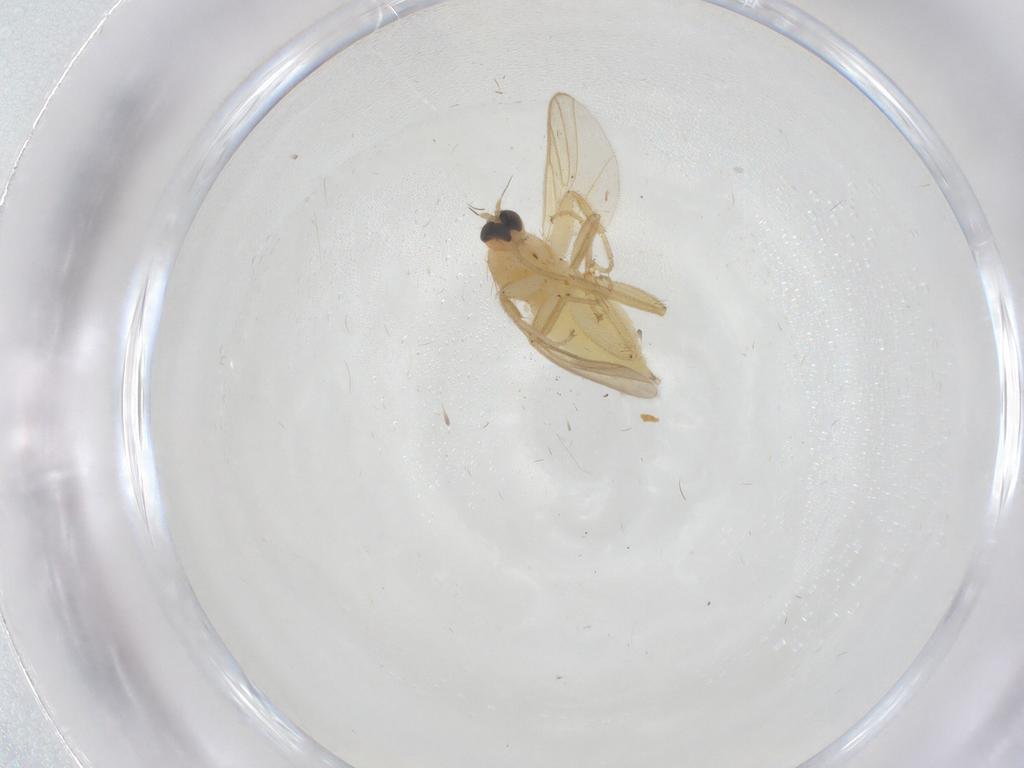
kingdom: Animalia
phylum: Arthropoda
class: Insecta
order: Diptera
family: Hybotidae
